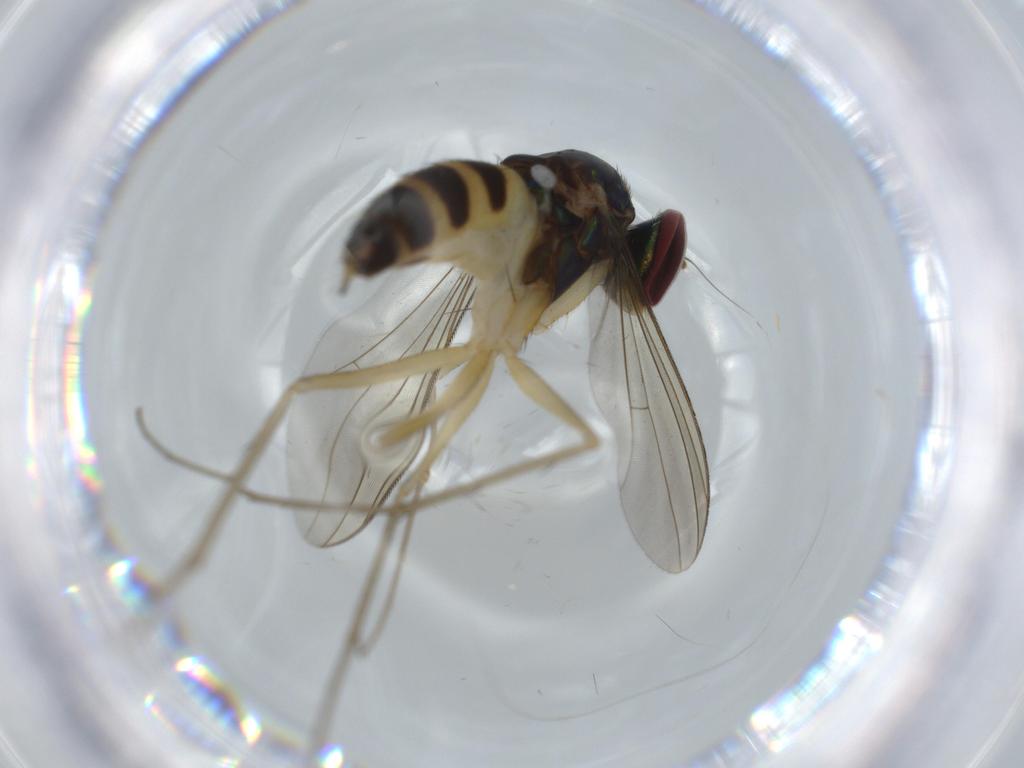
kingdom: Animalia
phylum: Arthropoda
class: Insecta
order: Diptera
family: Dolichopodidae
